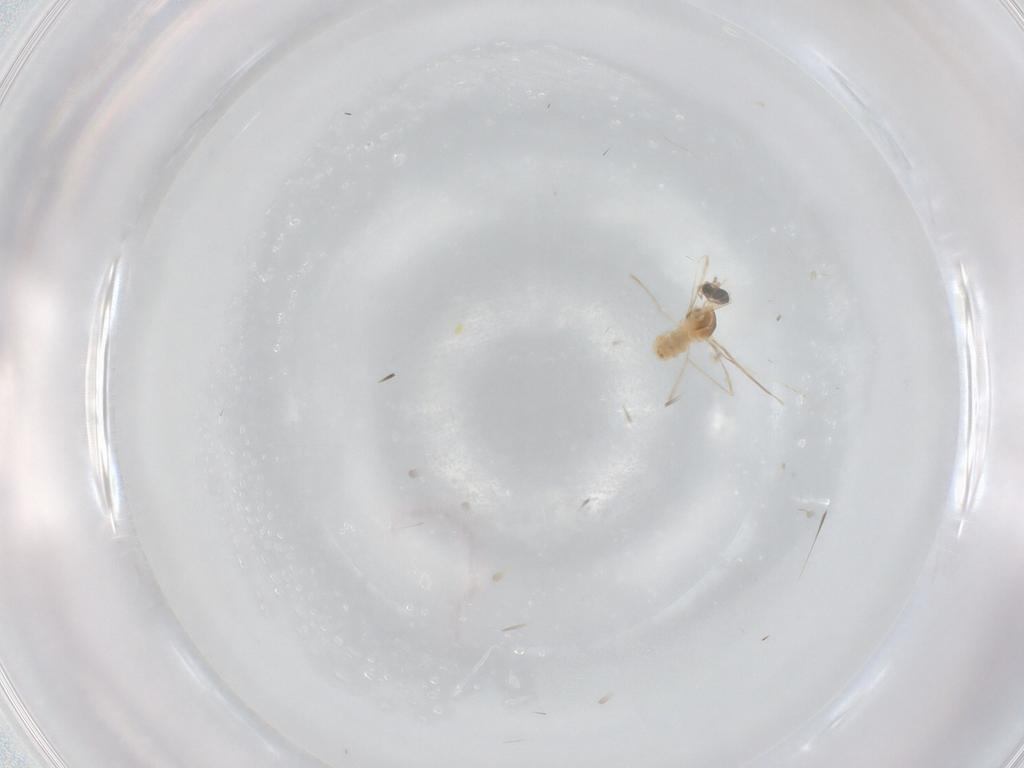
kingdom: Animalia
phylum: Arthropoda
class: Insecta
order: Diptera
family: Cecidomyiidae
